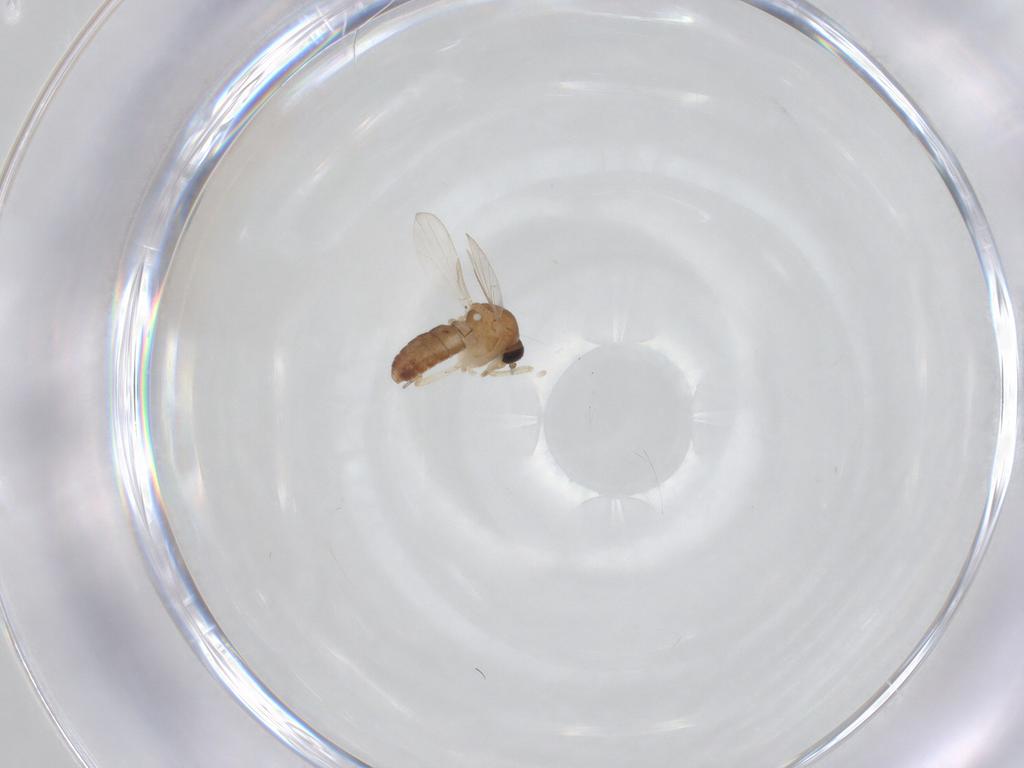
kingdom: Animalia
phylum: Arthropoda
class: Insecta
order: Diptera
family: Ceratopogonidae
